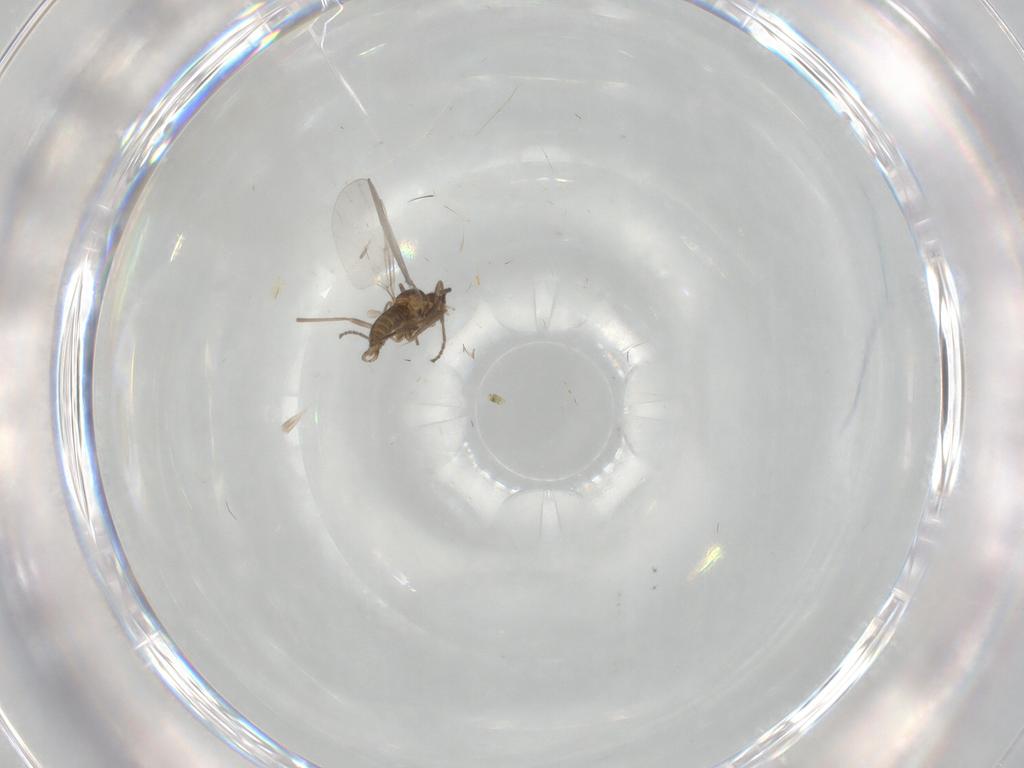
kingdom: Animalia
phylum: Arthropoda
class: Insecta
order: Diptera
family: Cecidomyiidae
